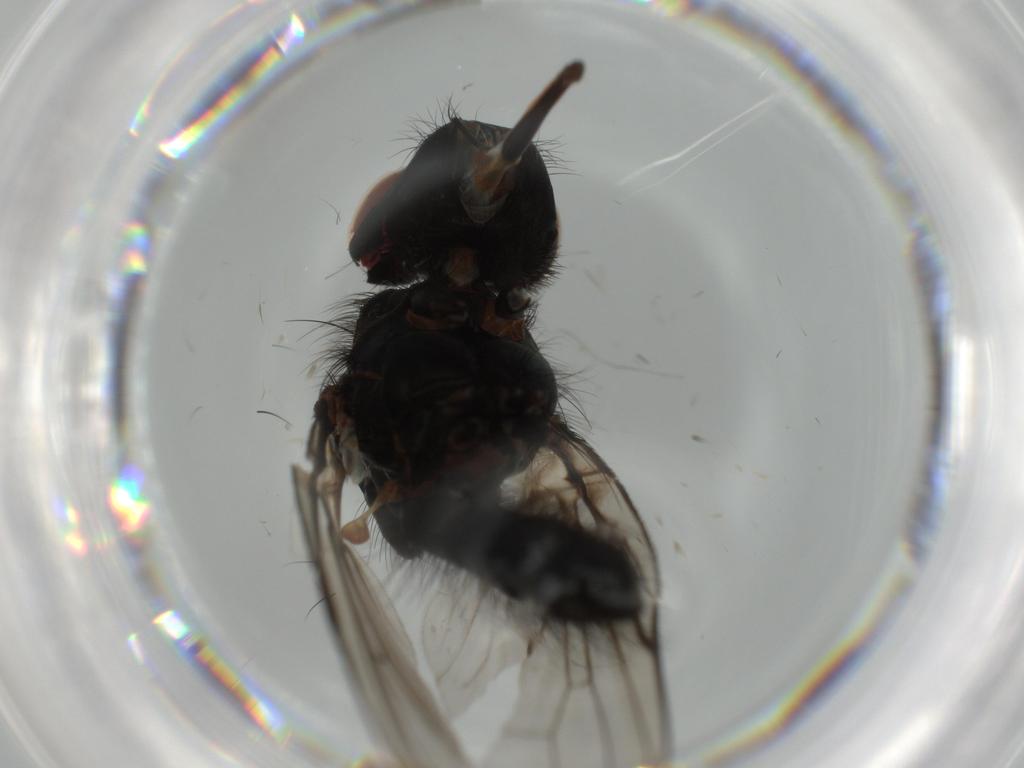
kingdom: Animalia
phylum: Arthropoda
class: Insecta
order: Diptera
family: Anthomyiidae
